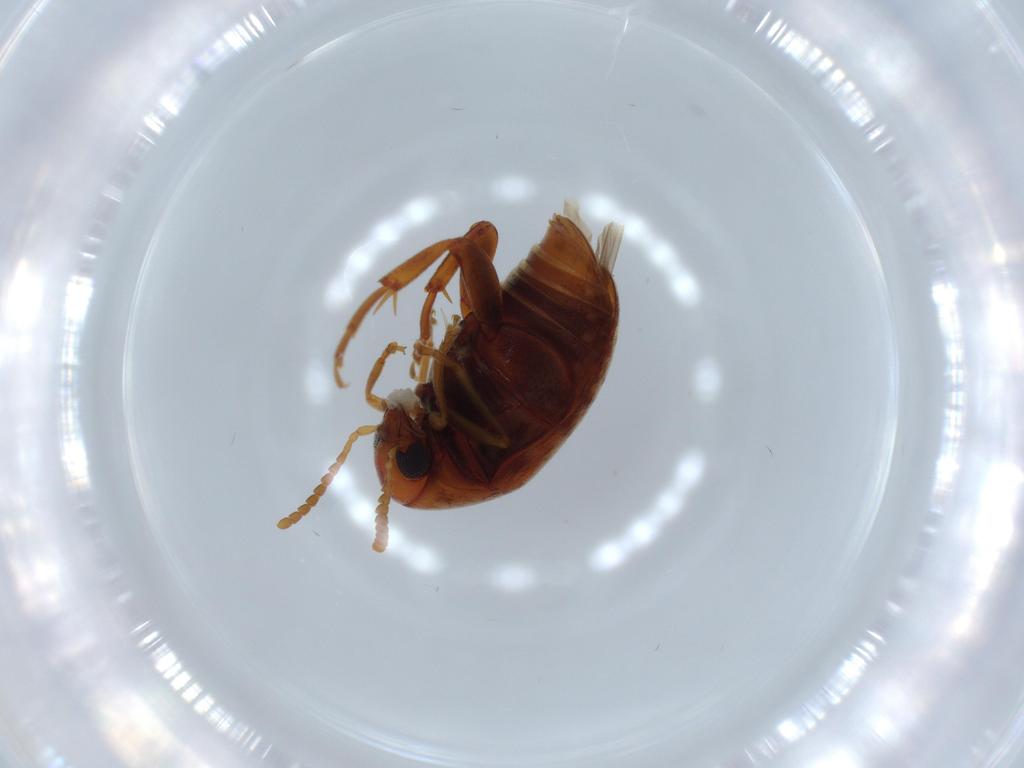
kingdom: Animalia
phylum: Arthropoda
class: Insecta
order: Coleoptera
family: Chrysomelidae
